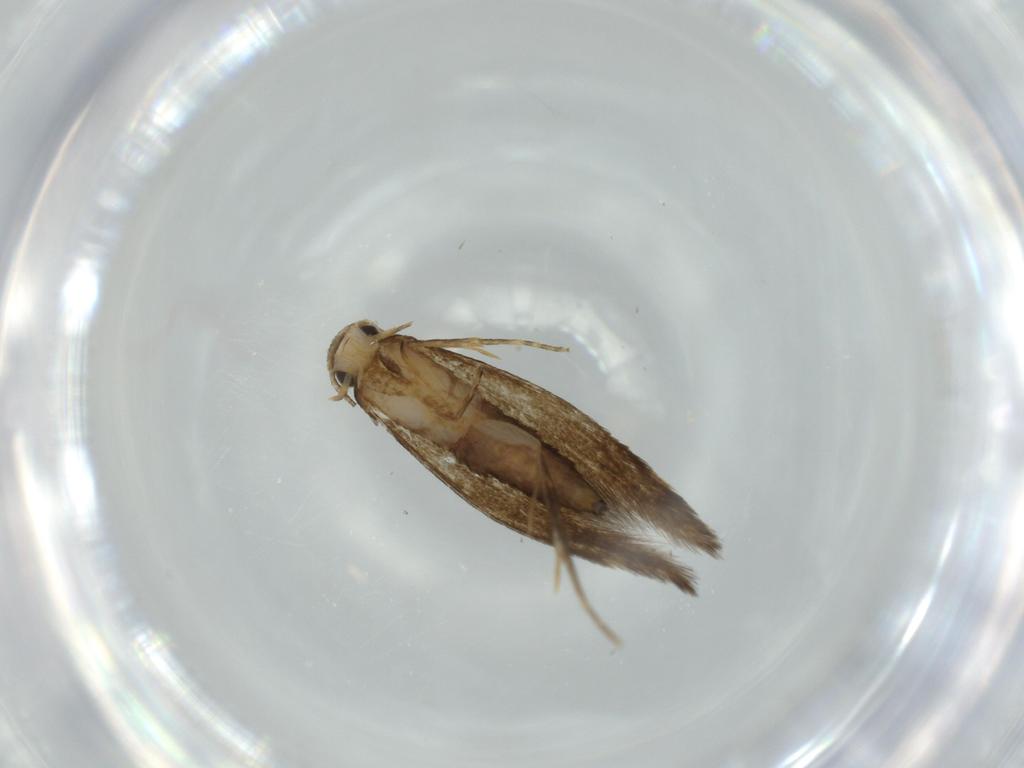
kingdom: Animalia
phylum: Arthropoda
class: Insecta
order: Lepidoptera
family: Tineidae
